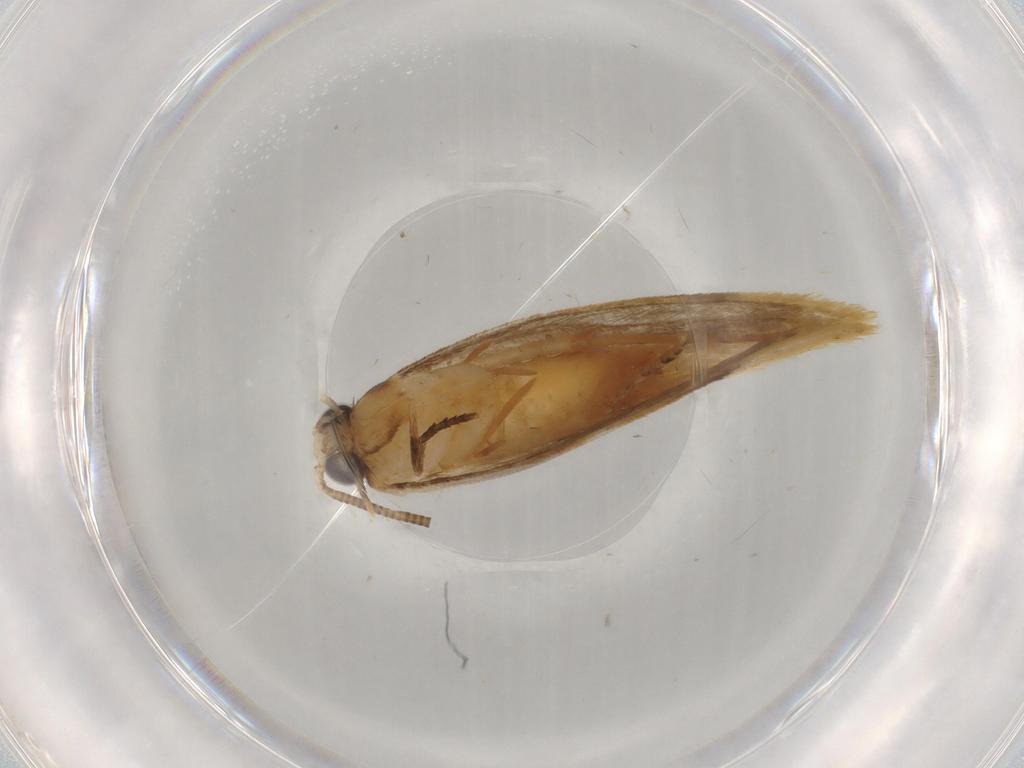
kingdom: Animalia
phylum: Arthropoda
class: Insecta
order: Lepidoptera
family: Tineidae
